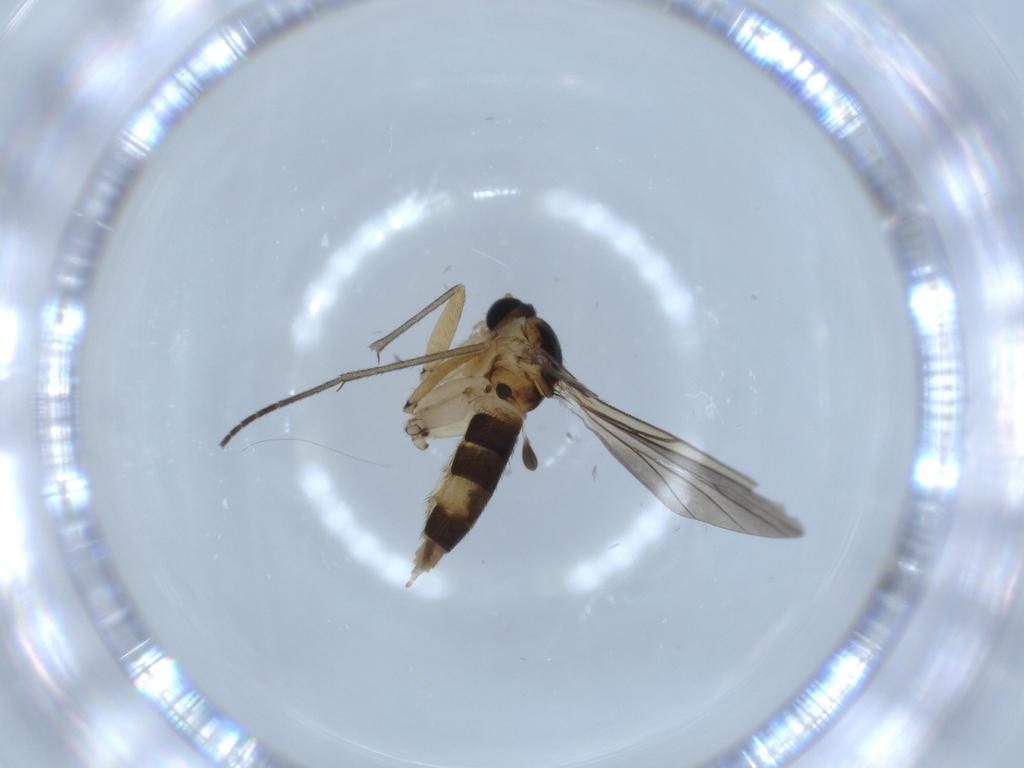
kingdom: Animalia
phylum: Arthropoda
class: Insecta
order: Diptera
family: Sciaridae
